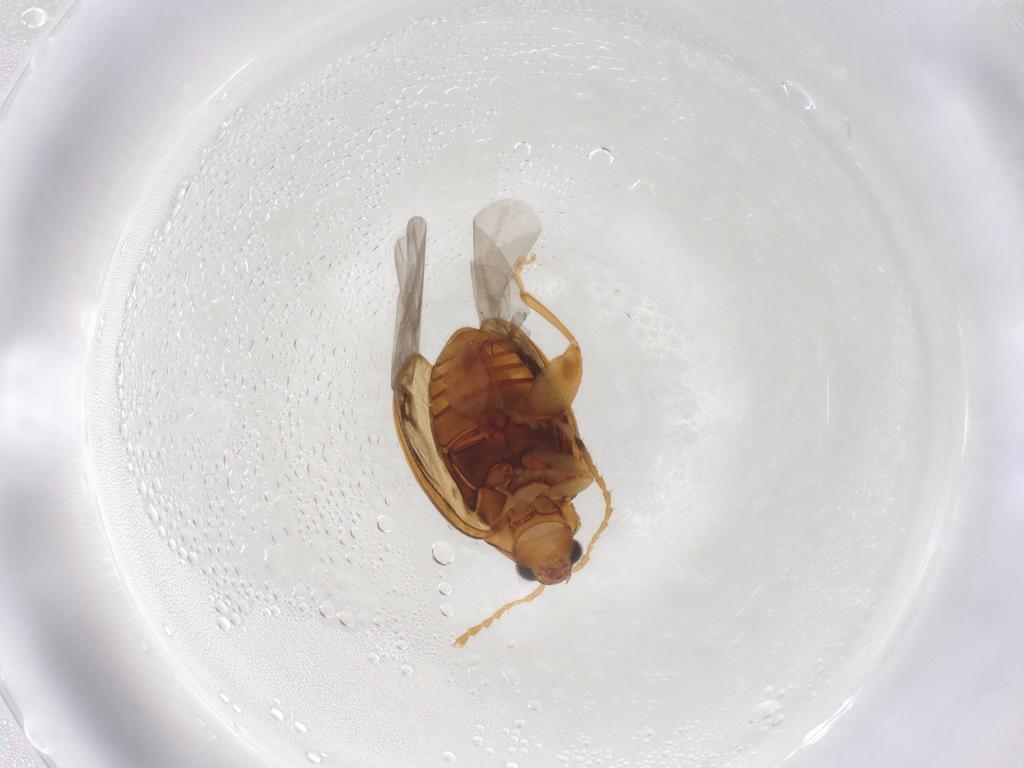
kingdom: Animalia
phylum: Arthropoda
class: Insecta
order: Coleoptera
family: Chrysomelidae
